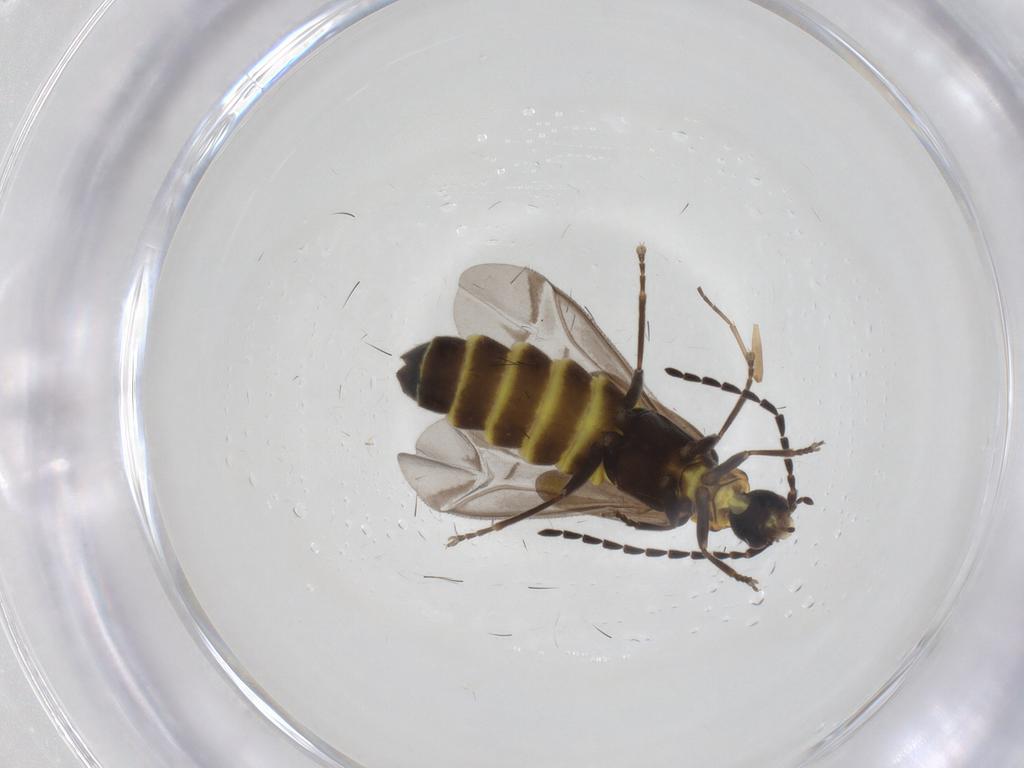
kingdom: Animalia
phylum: Arthropoda
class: Insecta
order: Coleoptera
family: Cantharidae
